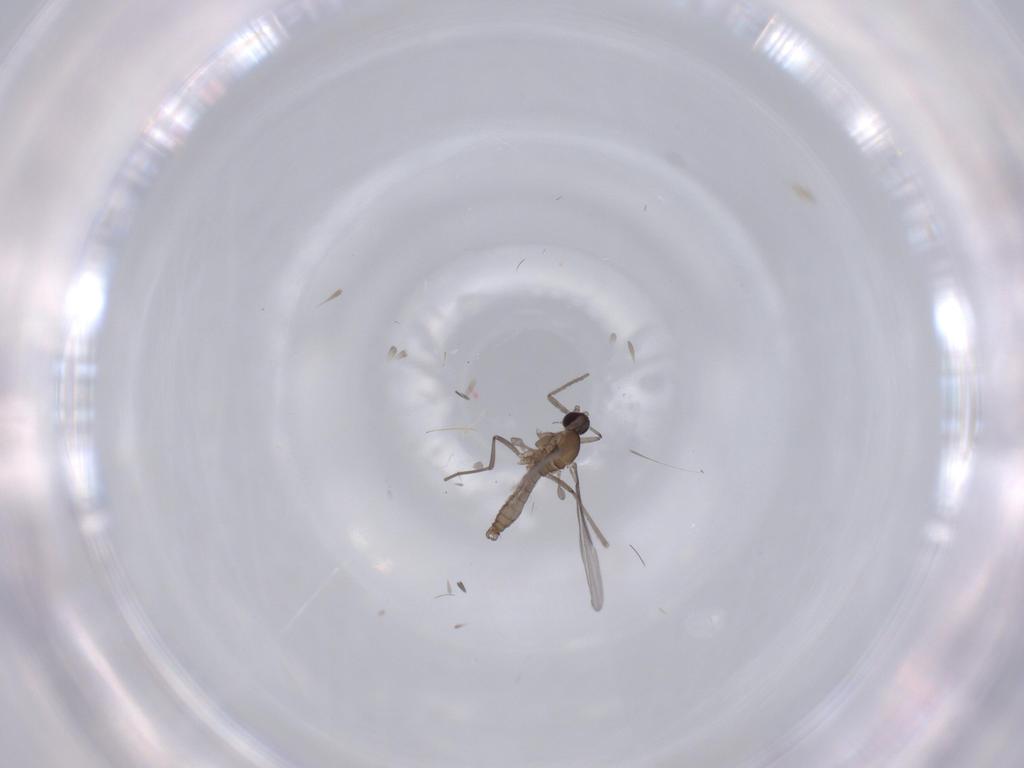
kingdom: Animalia
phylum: Arthropoda
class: Insecta
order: Diptera
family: Cecidomyiidae
